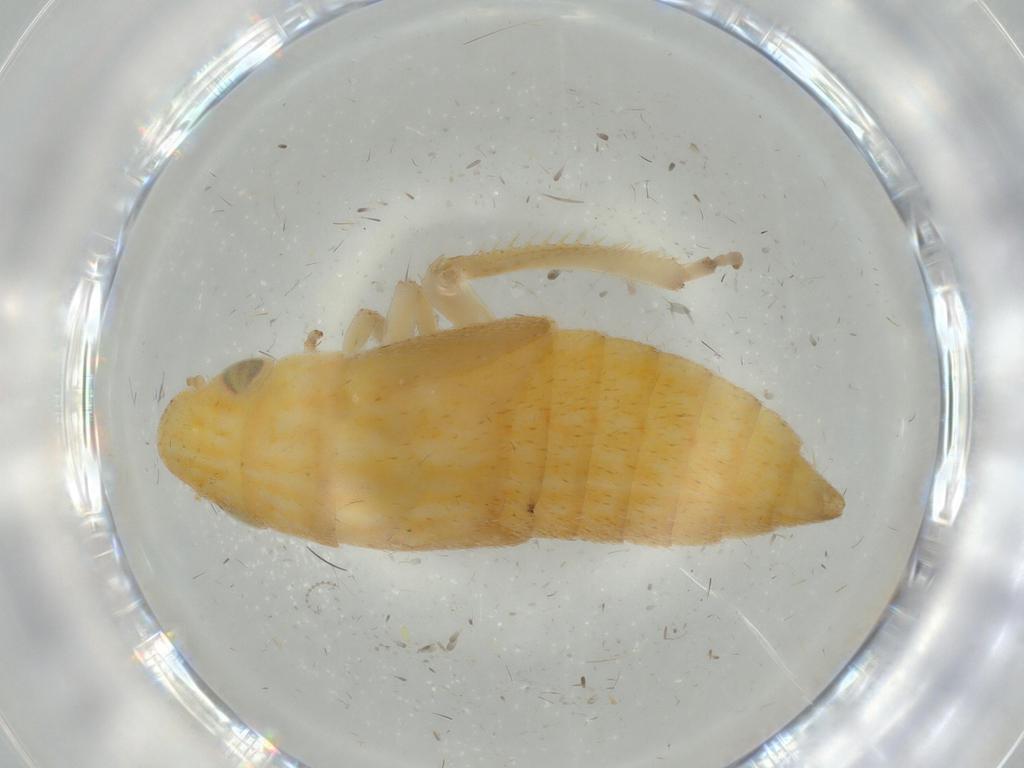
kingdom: Animalia
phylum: Arthropoda
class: Insecta
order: Hemiptera
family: Cicadellidae
